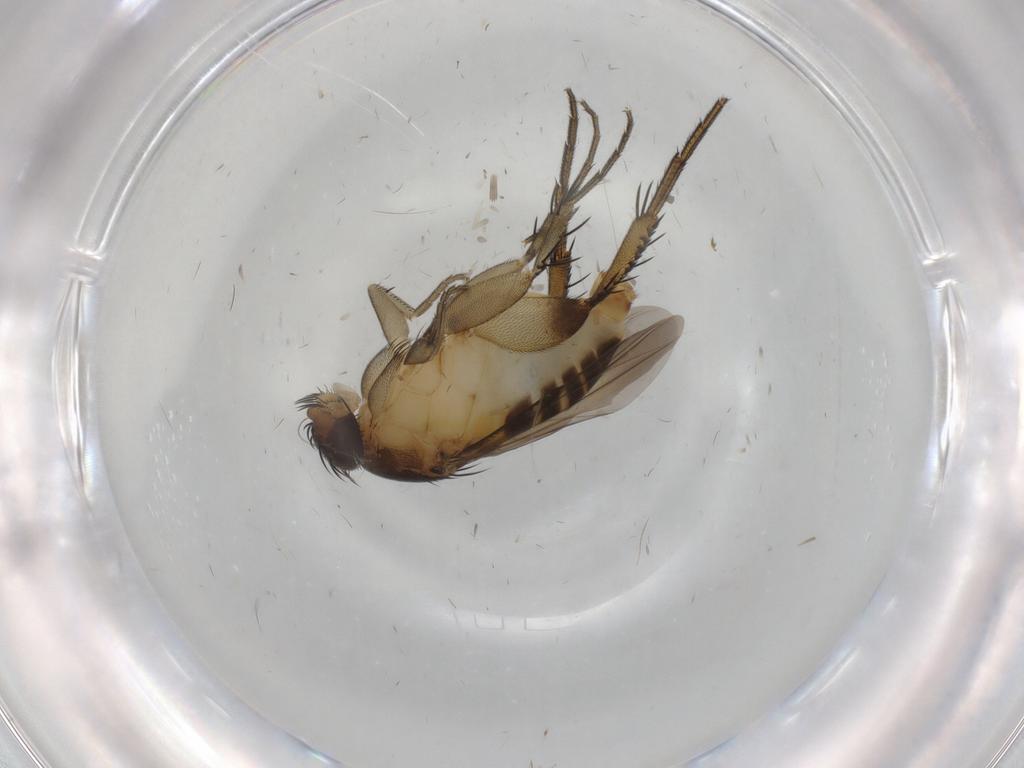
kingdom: Animalia
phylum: Arthropoda
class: Insecta
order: Diptera
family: Phoridae
